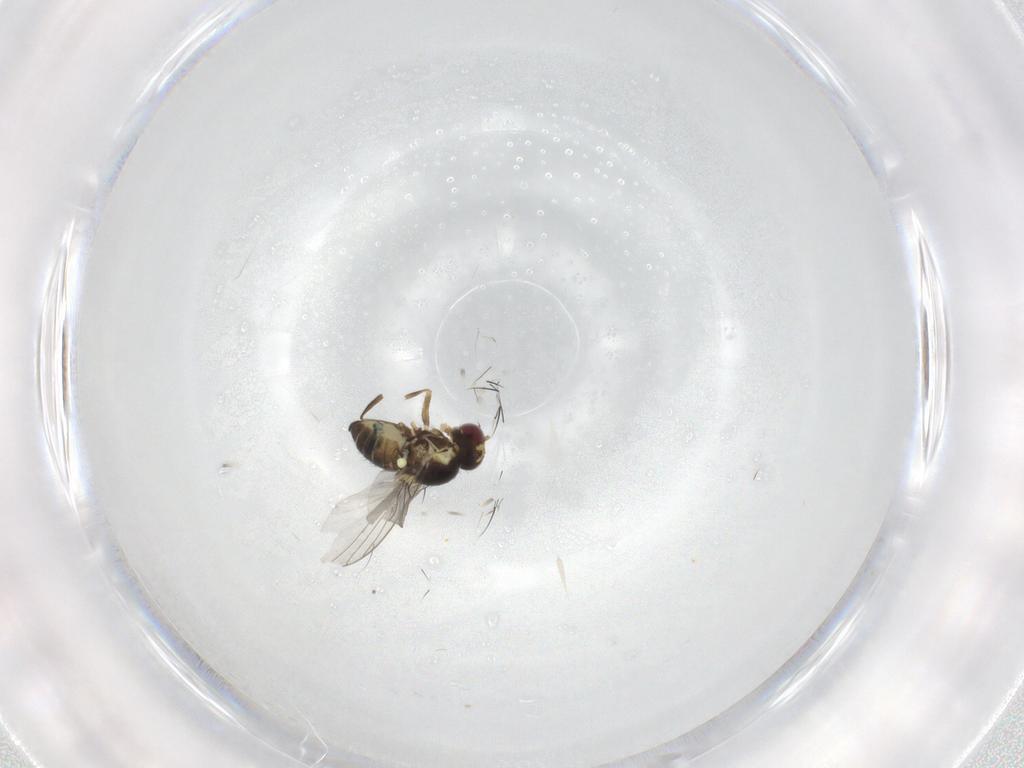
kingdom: Animalia
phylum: Arthropoda
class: Insecta
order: Diptera
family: Agromyzidae
